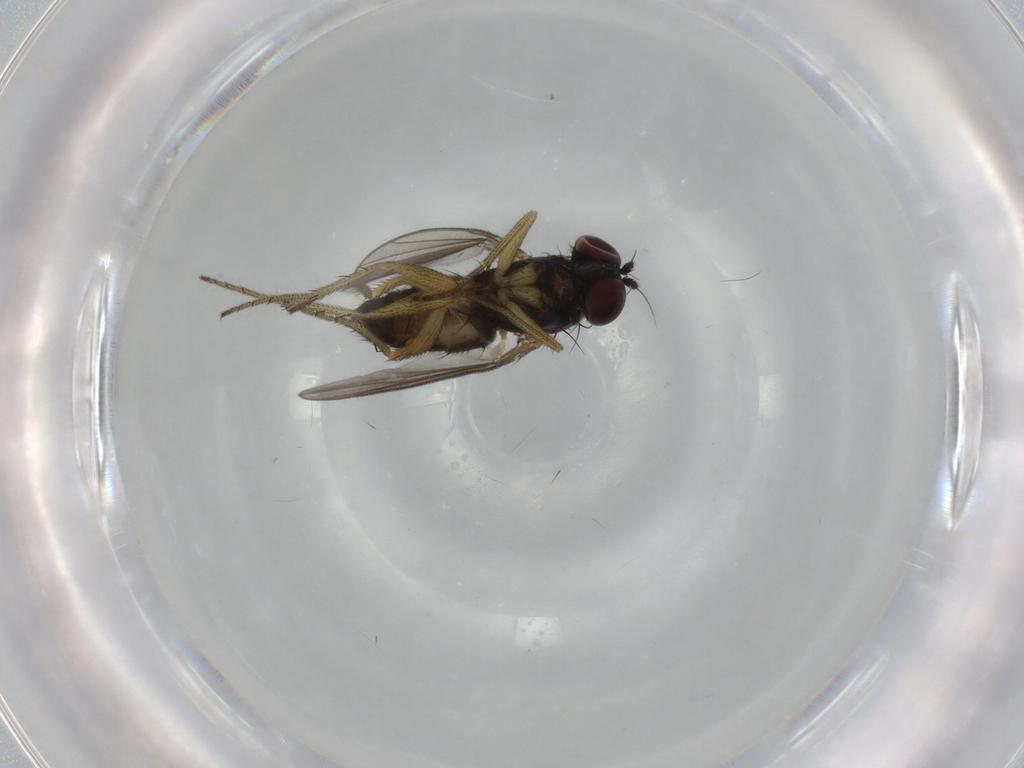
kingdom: Animalia
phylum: Arthropoda
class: Insecta
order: Diptera
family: Dolichopodidae
